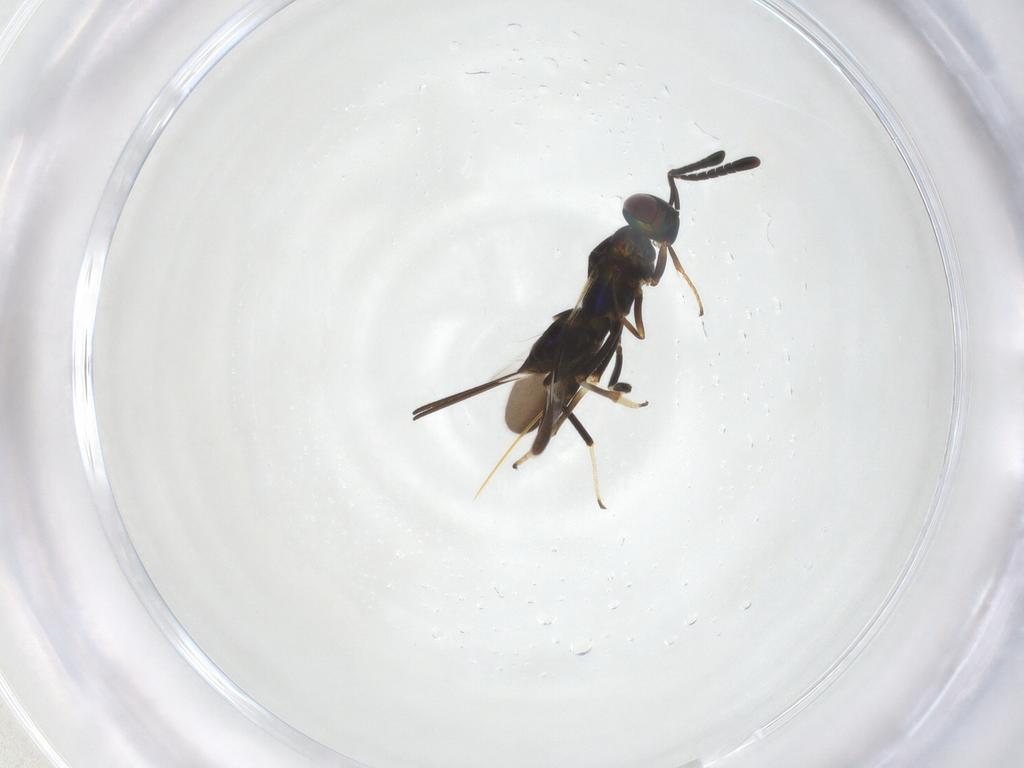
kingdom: Animalia
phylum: Arthropoda
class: Insecta
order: Hymenoptera
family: Encyrtidae
